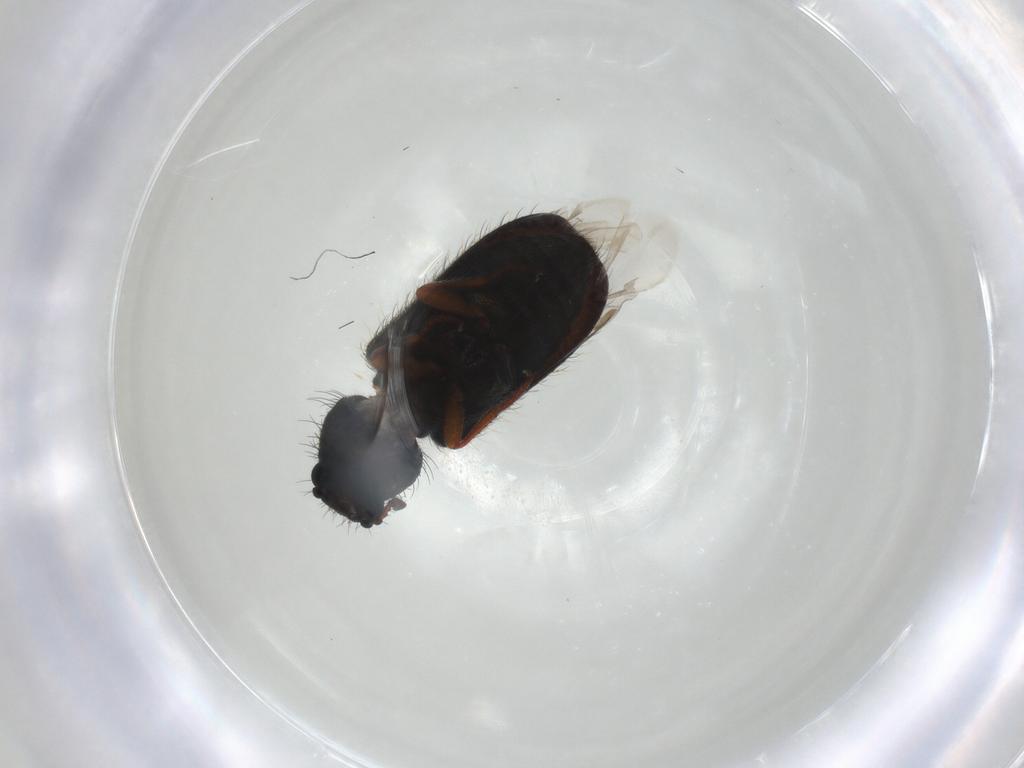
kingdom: Animalia
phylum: Arthropoda
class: Insecta
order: Coleoptera
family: Melyridae
